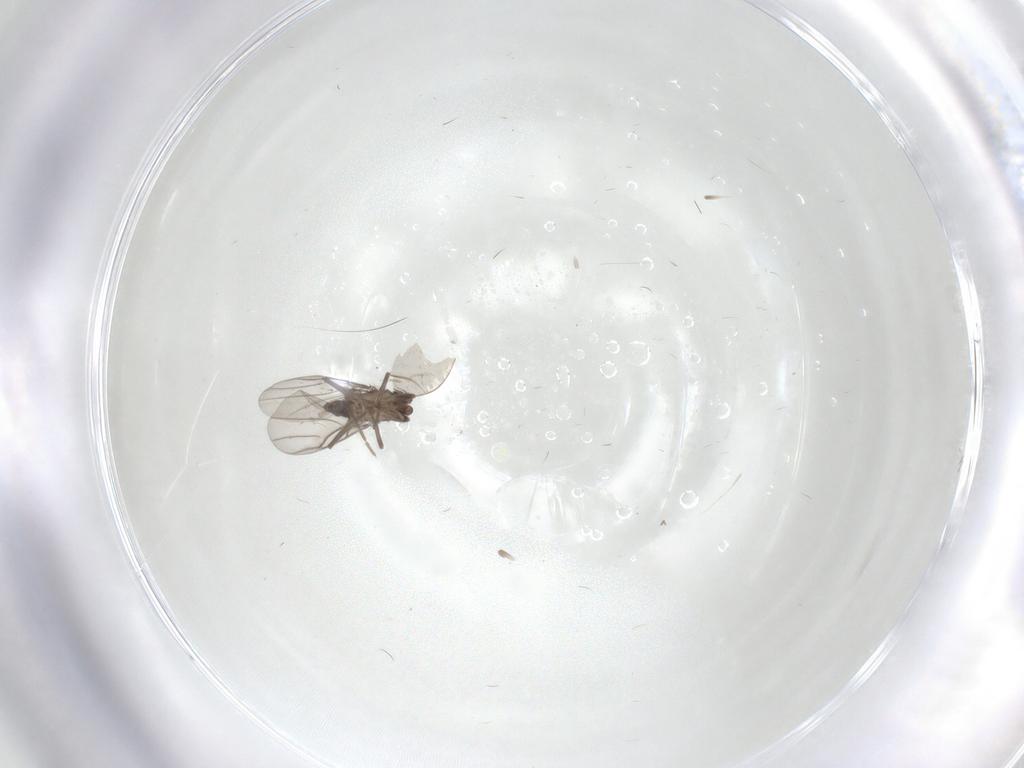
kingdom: Animalia
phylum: Arthropoda
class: Insecta
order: Diptera
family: Ceratopogonidae
